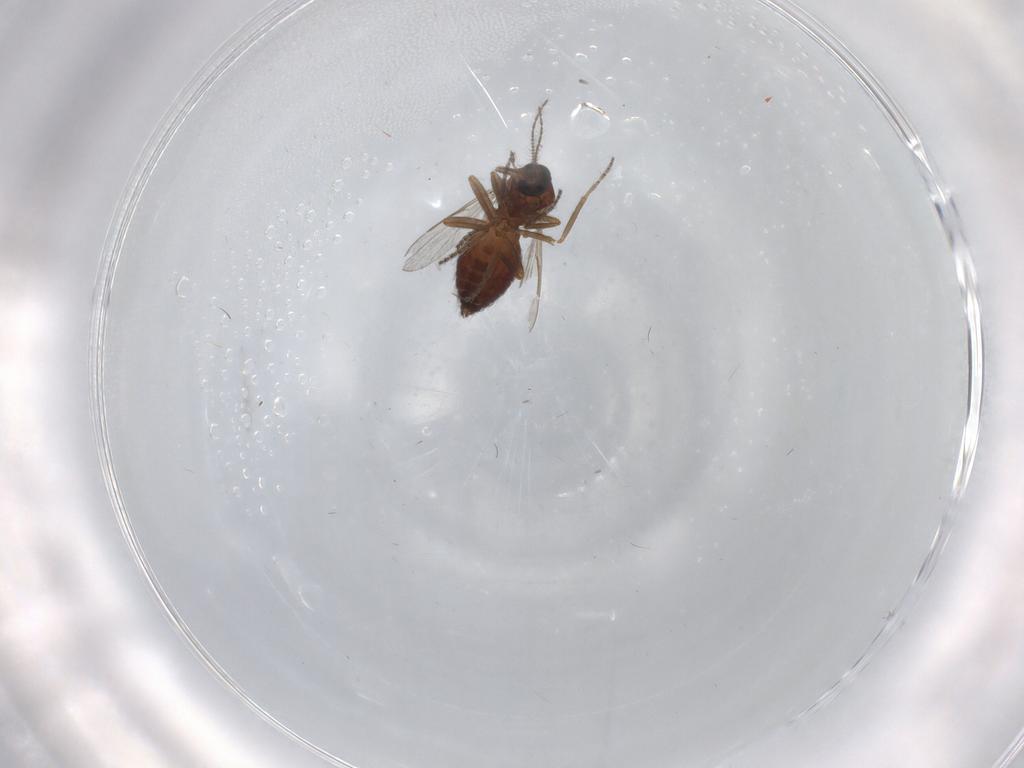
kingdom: Animalia
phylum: Arthropoda
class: Insecta
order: Diptera
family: Ceratopogonidae
